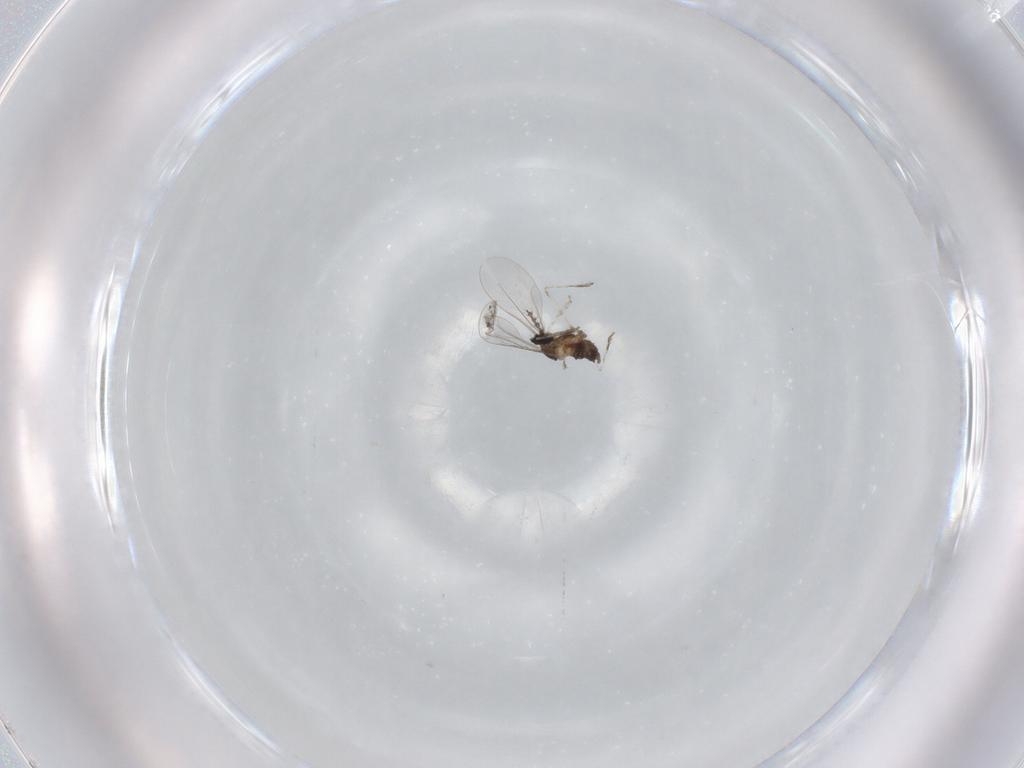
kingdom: Animalia
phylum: Arthropoda
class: Insecta
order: Diptera
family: Cecidomyiidae
